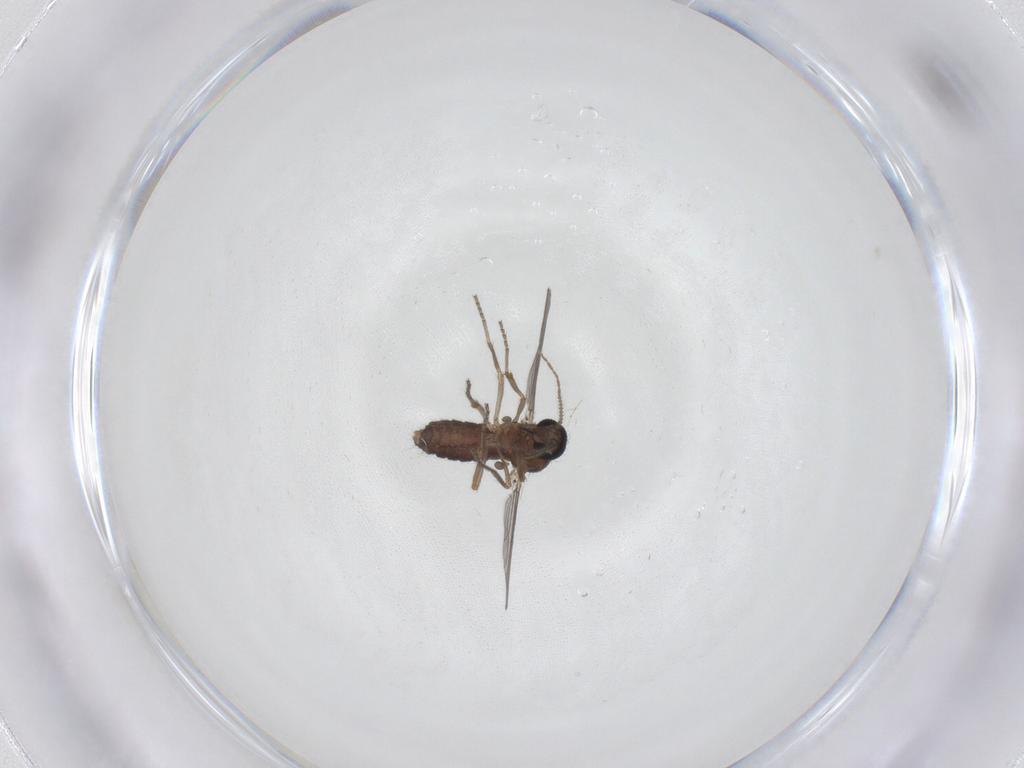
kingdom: Animalia
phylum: Arthropoda
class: Insecta
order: Diptera
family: Ceratopogonidae
